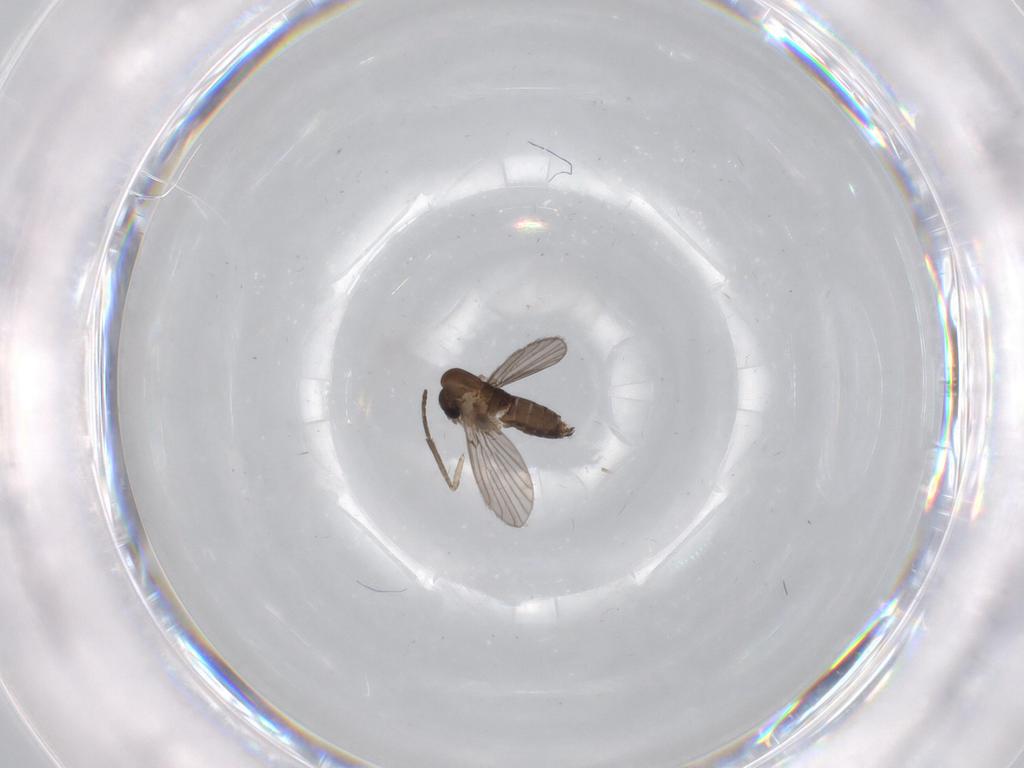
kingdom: Animalia
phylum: Arthropoda
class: Insecta
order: Diptera
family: Psychodidae
